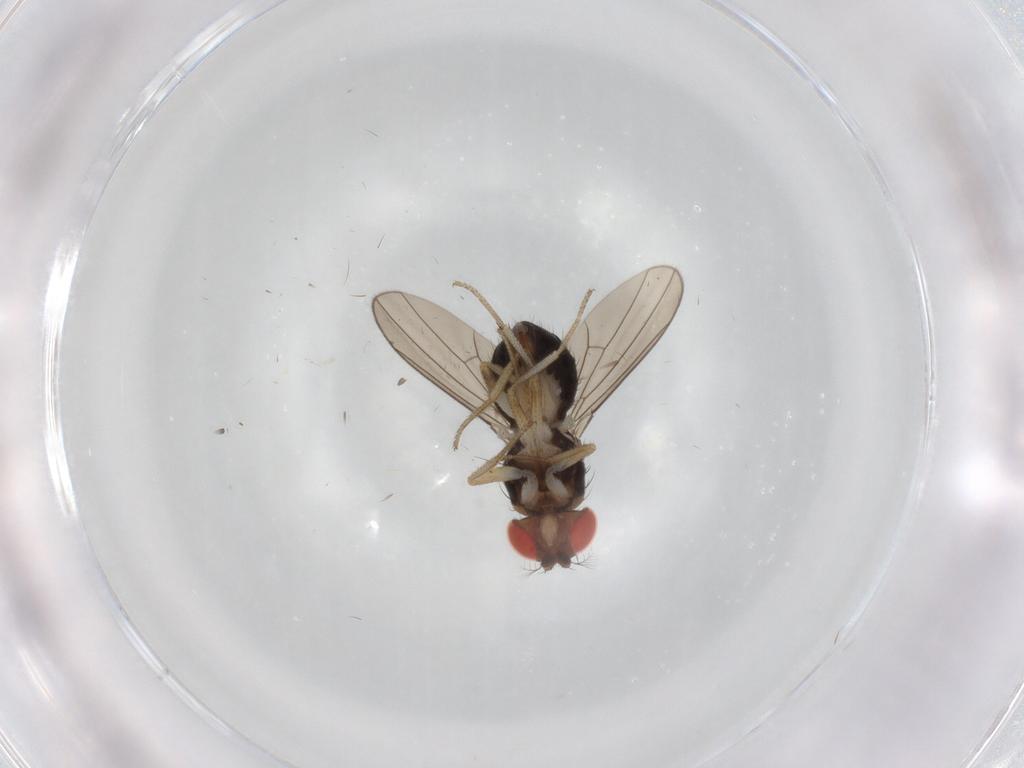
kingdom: Animalia
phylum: Arthropoda
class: Insecta
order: Diptera
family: Drosophilidae
